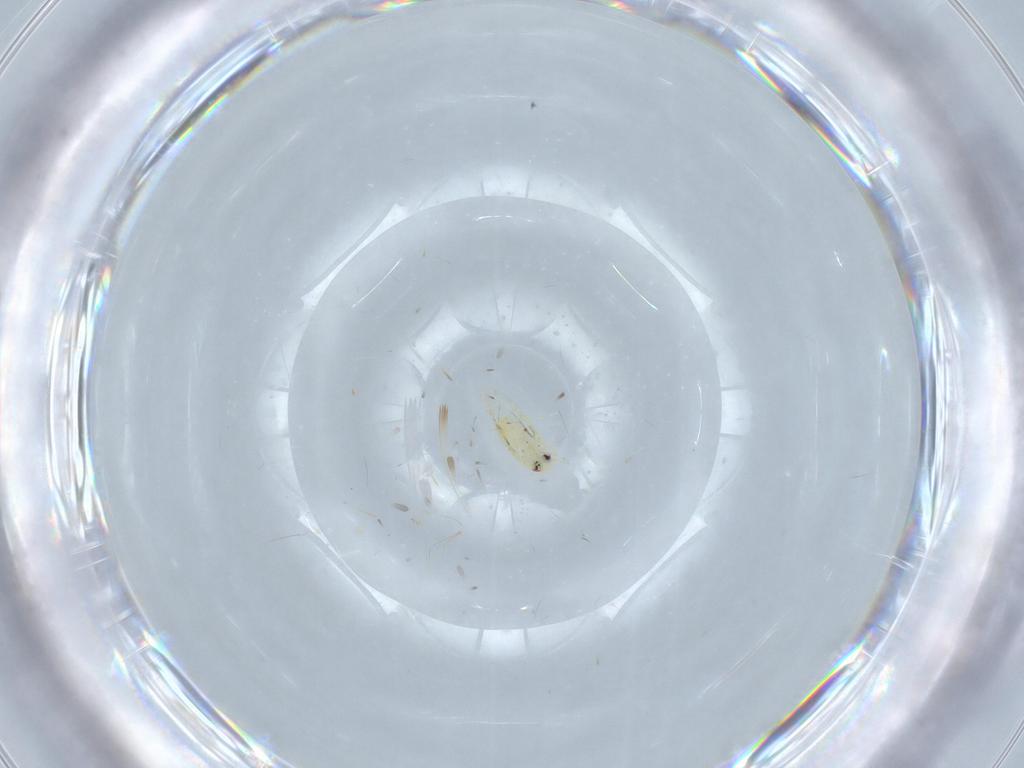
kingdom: Animalia
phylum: Arthropoda
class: Insecta
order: Hemiptera
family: Aleyrodidae
